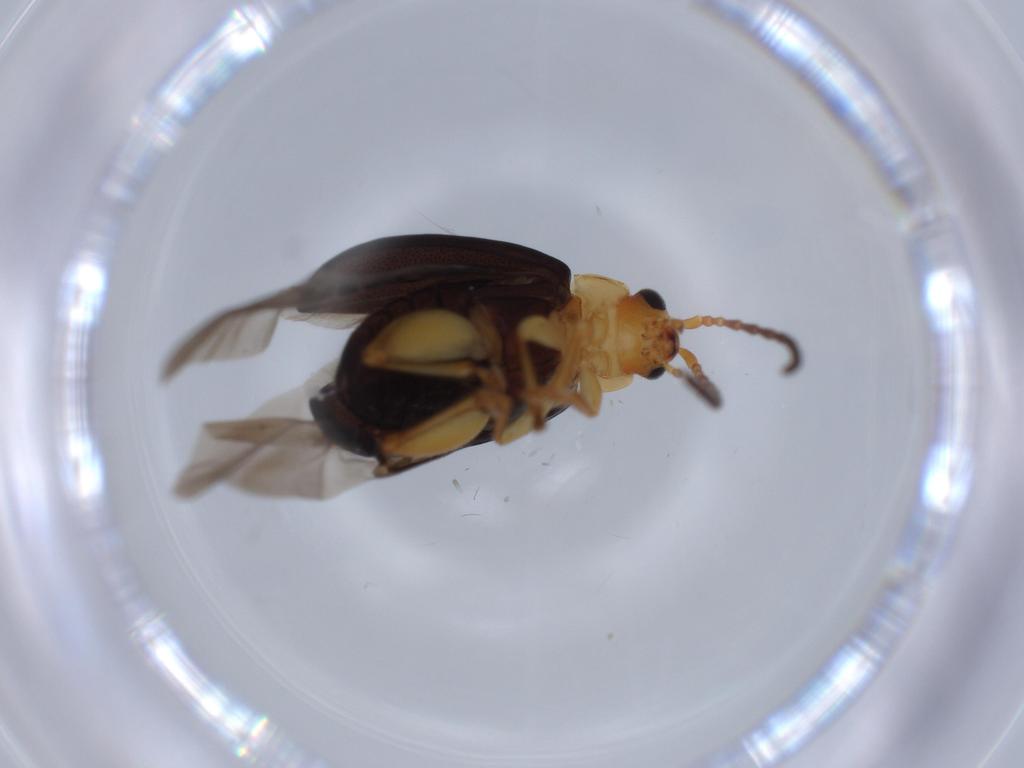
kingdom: Animalia
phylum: Arthropoda
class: Insecta
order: Coleoptera
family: Chrysomelidae
